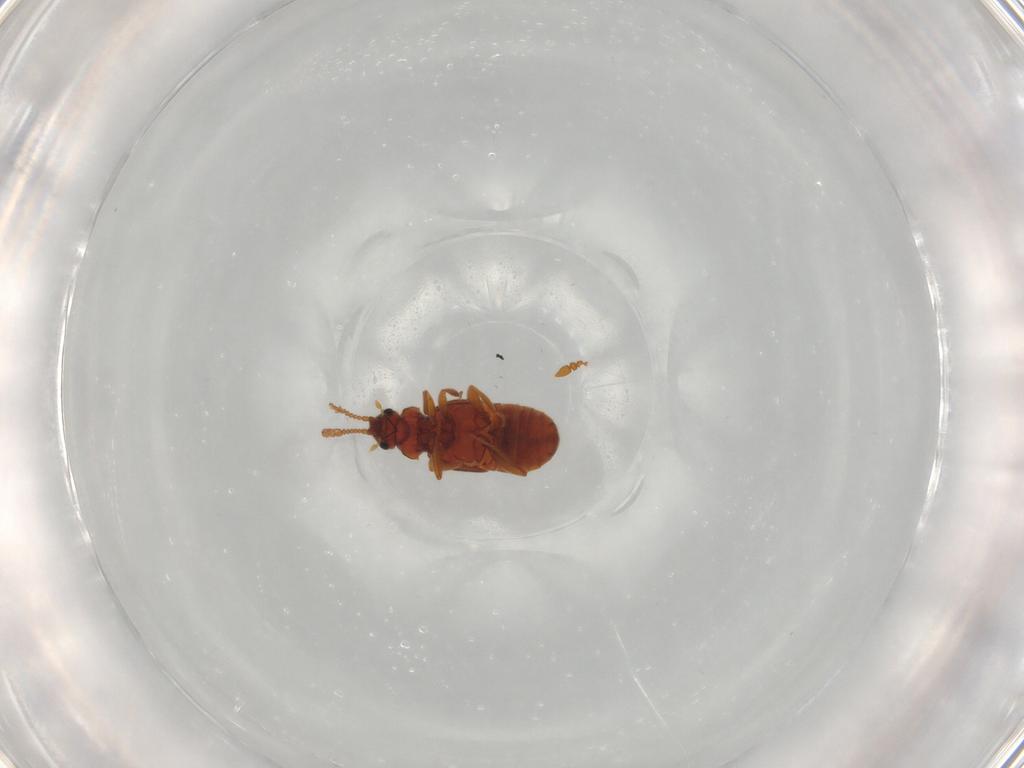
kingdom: Animalia
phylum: Arthropoda
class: Insecta
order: Coleoptera
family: Staphylinidae
